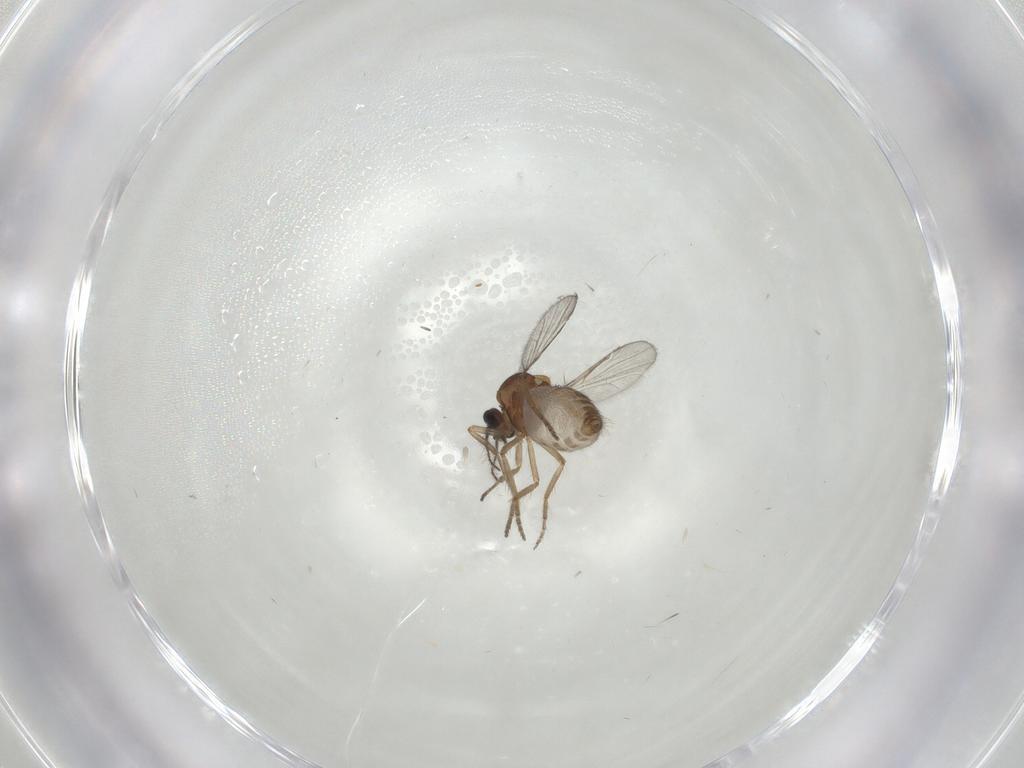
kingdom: Animalia
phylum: Arthropoda
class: Insecta
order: Diptera
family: Ceratopogonidae
